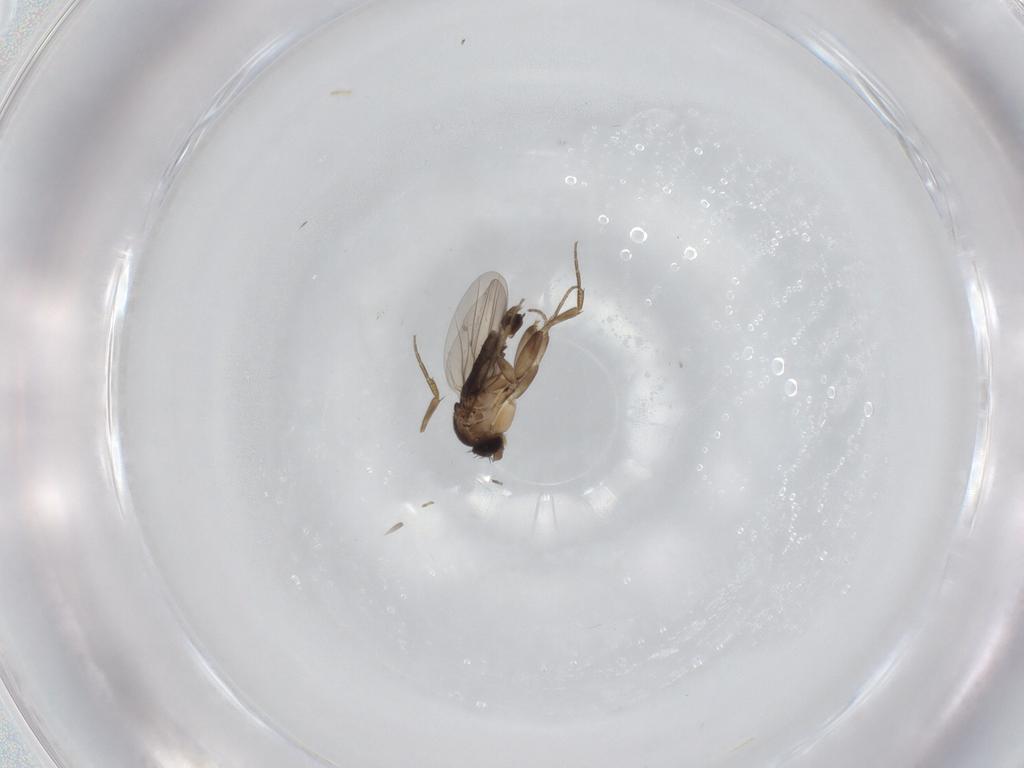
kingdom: Animalia
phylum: Arthropoda
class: Insecta
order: Diptera
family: Phoridae
